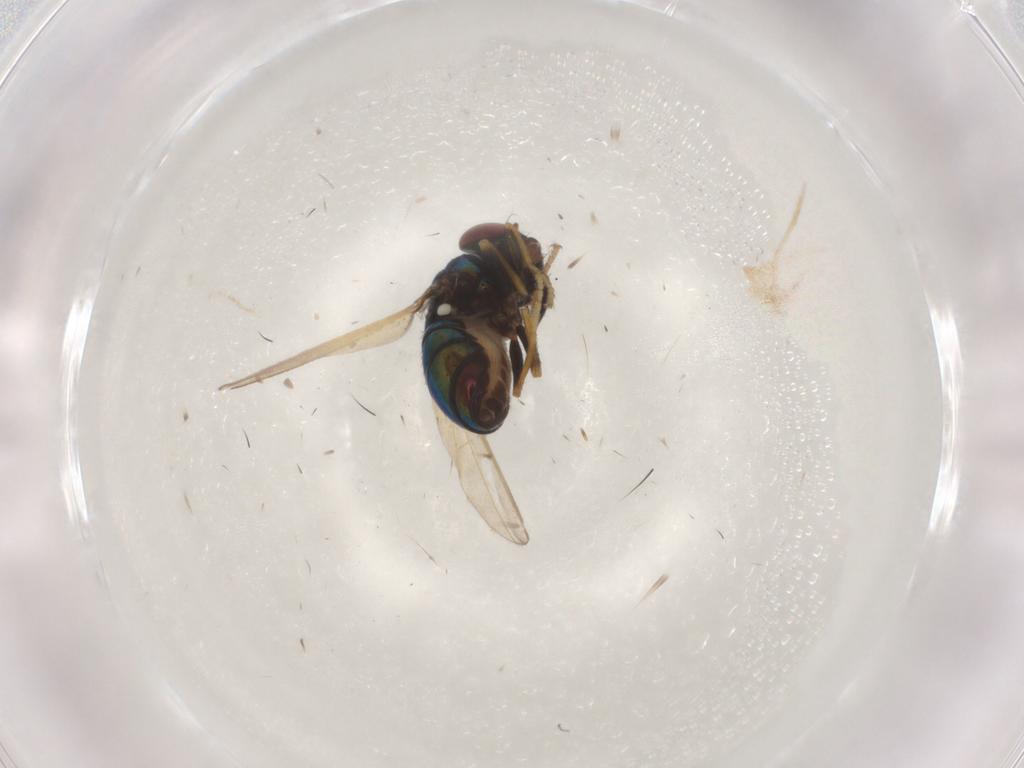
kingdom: Animalia
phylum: Arthropoda
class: Insecta
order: Diptera
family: Ephydridae
